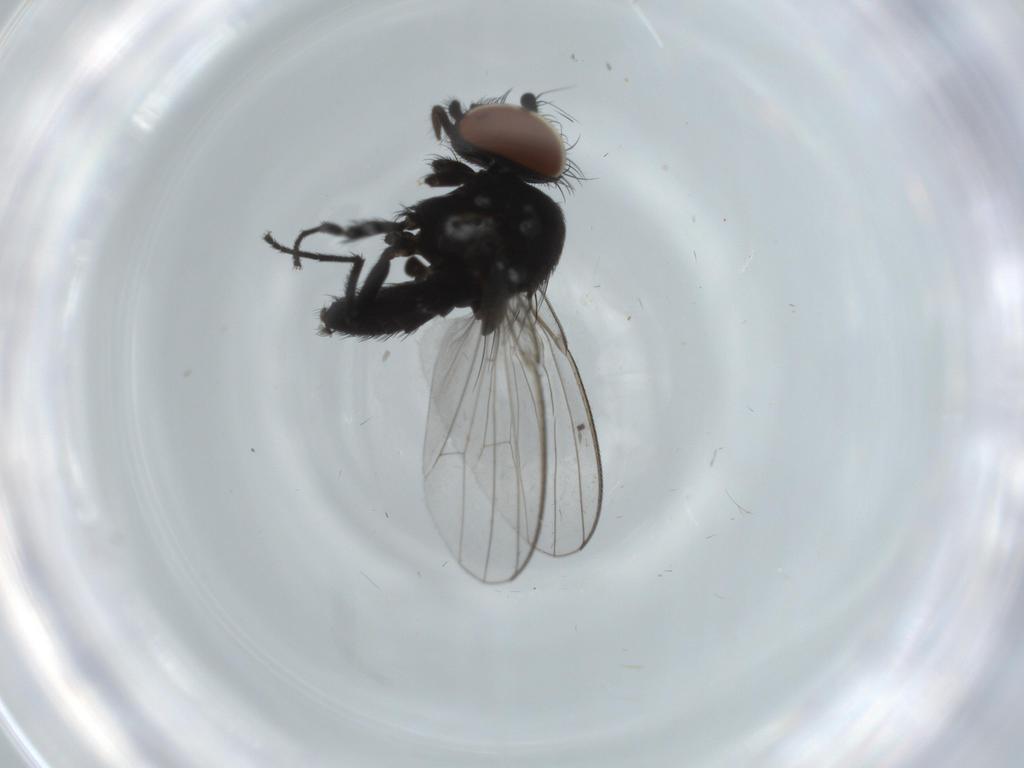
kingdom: Animalia
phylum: Arthropoda
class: Insecta
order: Diptera
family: Milichiidae
